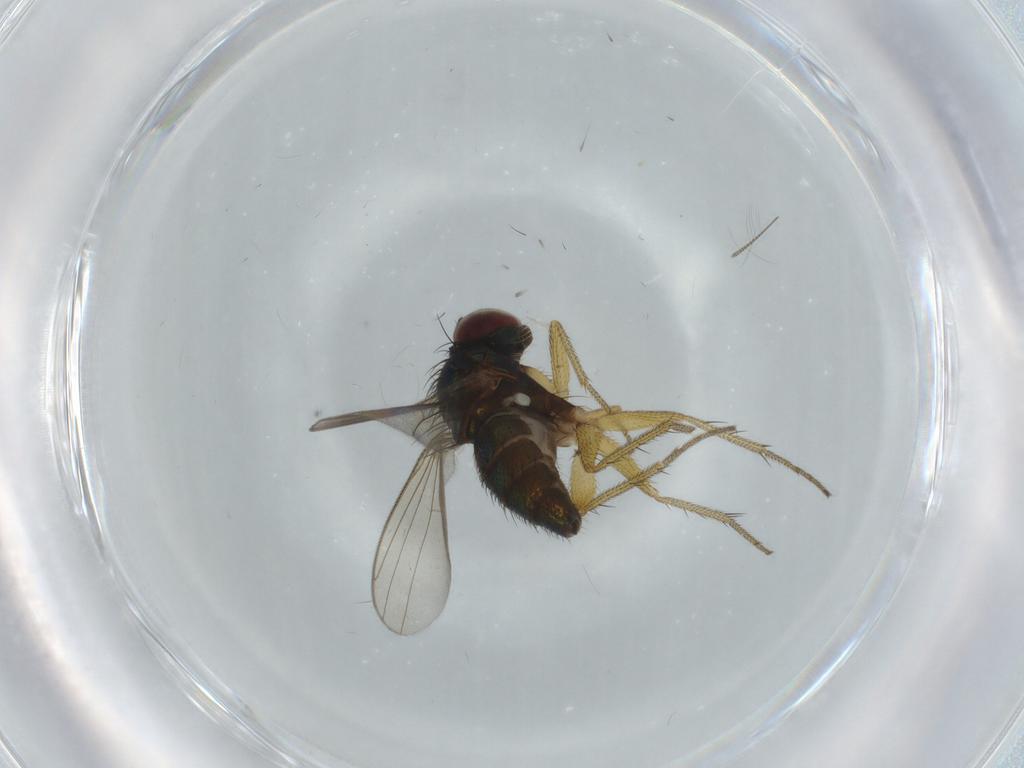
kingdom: Animalia
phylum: Arthropoda
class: Insecta
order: Diptera
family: Dolichopodidae
